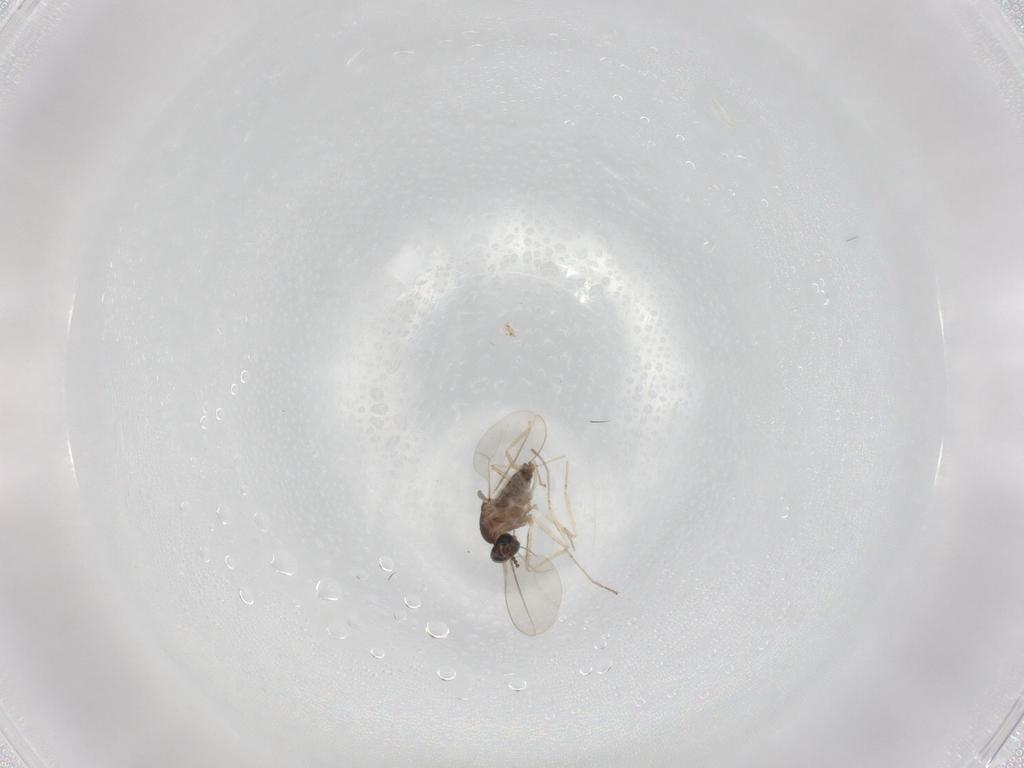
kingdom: Animalia
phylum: Arthropoda
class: Insecta
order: Diptera
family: Cecidomyiidae
